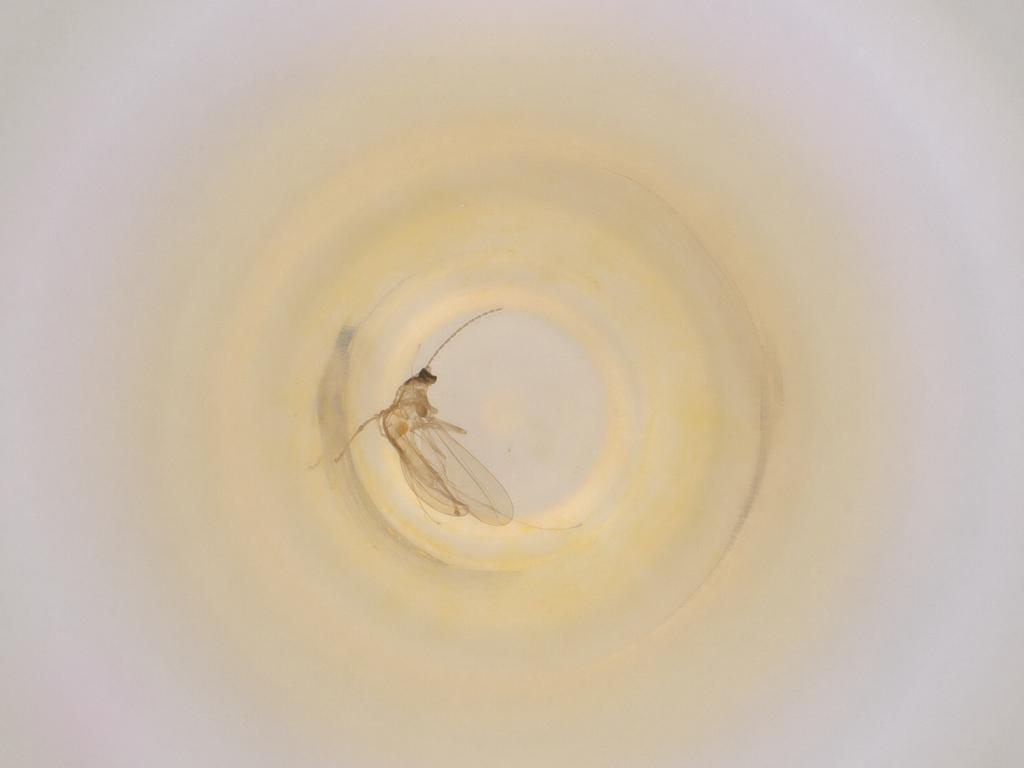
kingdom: Animalia
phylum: Arthropoda
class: Insecta
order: Diptera
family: Cecidomyiidae
